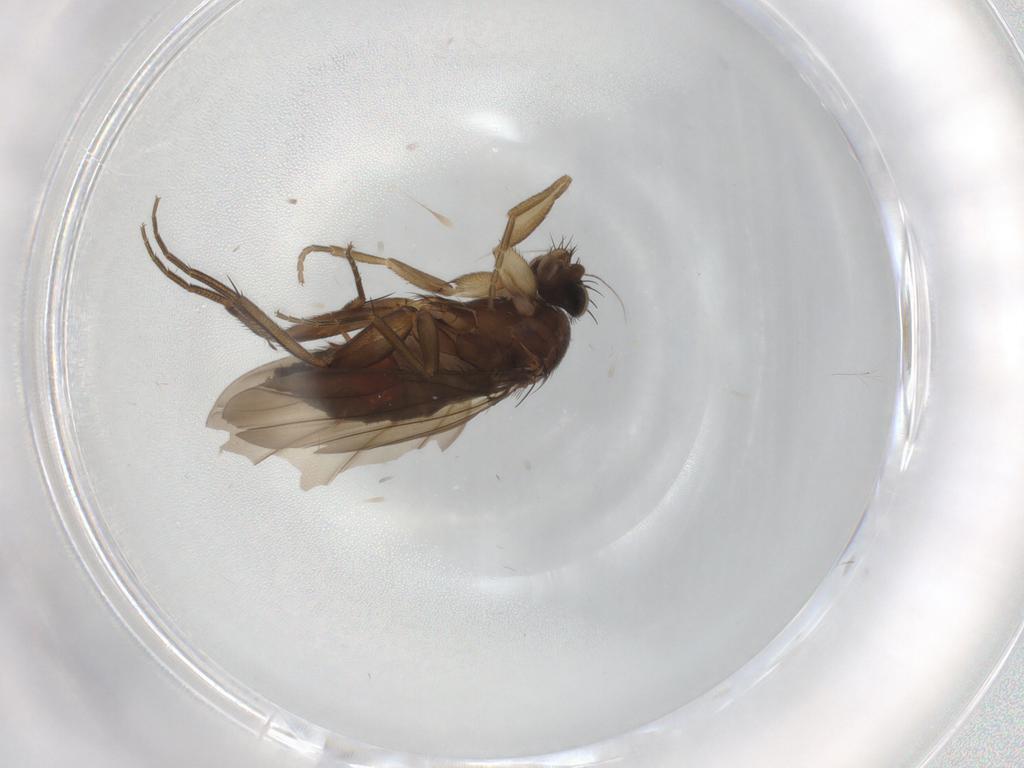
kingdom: Animalia
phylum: Arthropoda
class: Insecta
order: Diptera
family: Phoridae
